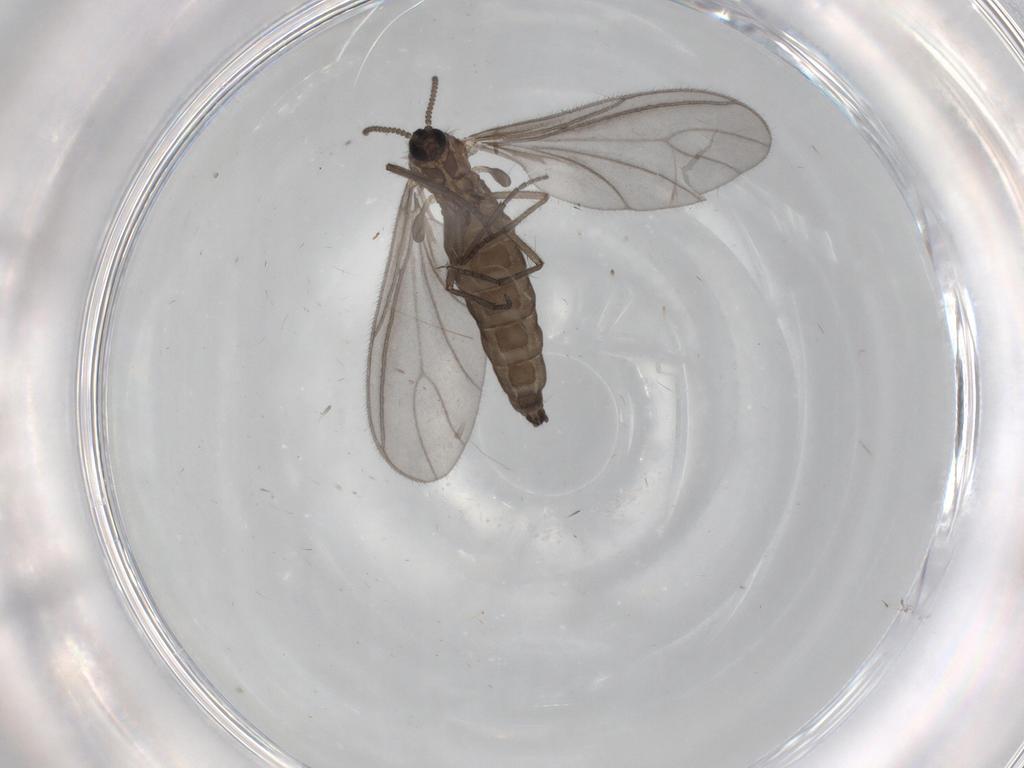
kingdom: Animalia
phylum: Arthropoda
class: Insecta
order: Diptera
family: Sciaridae
